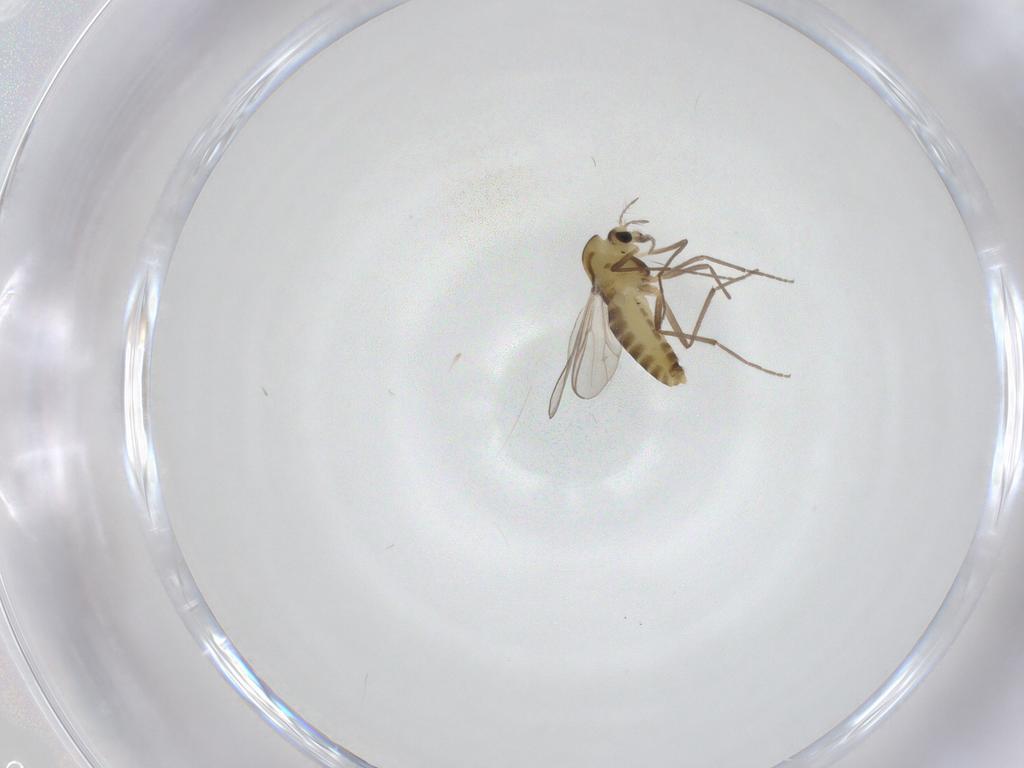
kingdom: Animalia
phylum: Arthropoda
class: Insecta
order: Diptera
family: Chironomidae
